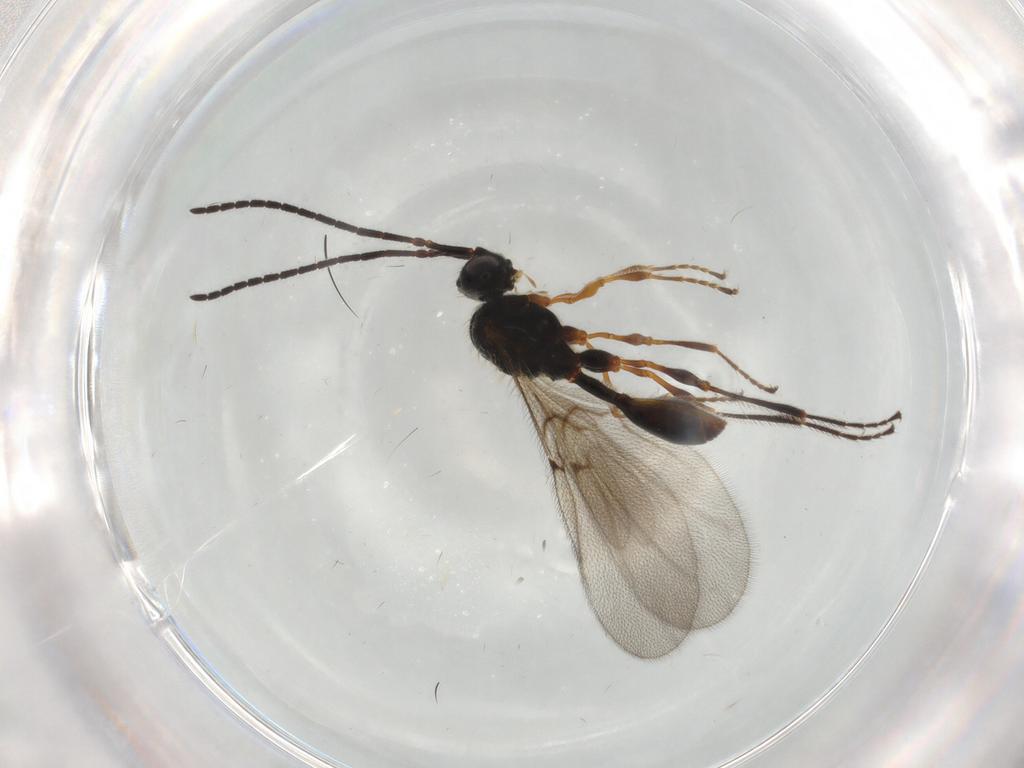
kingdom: Animalia
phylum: Arthropoda
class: Insecta
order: Hymenoptera
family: Diapriidae
